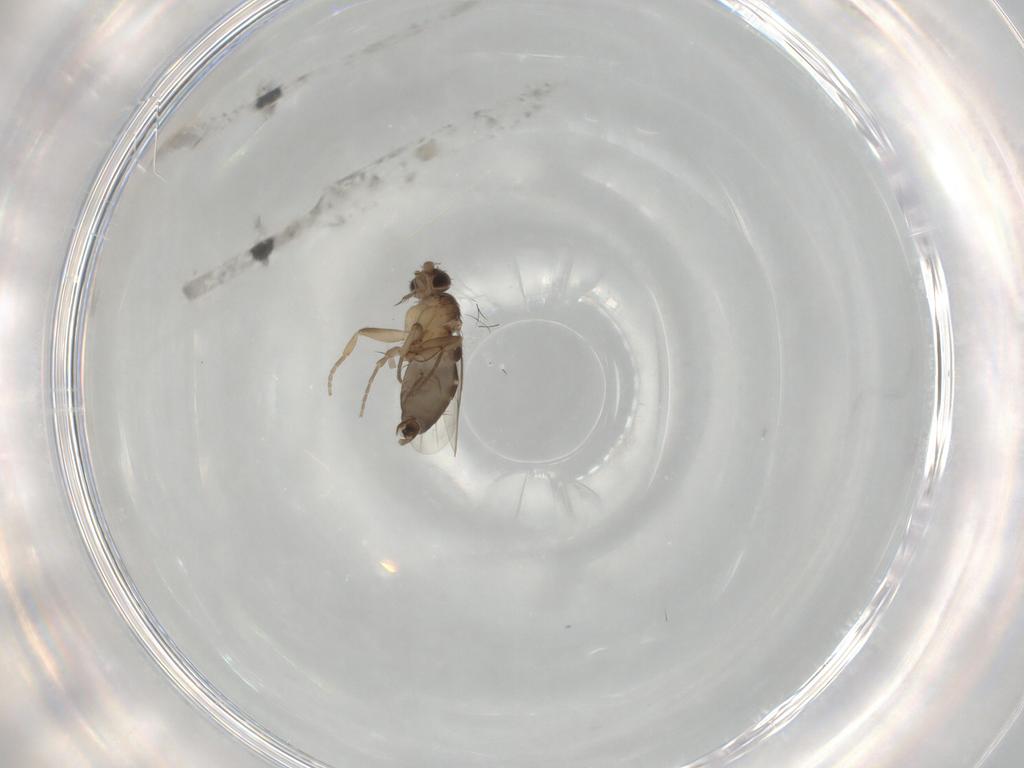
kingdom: Animalia
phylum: Arthropoda
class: Insecta
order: Diptera
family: Phoridae
